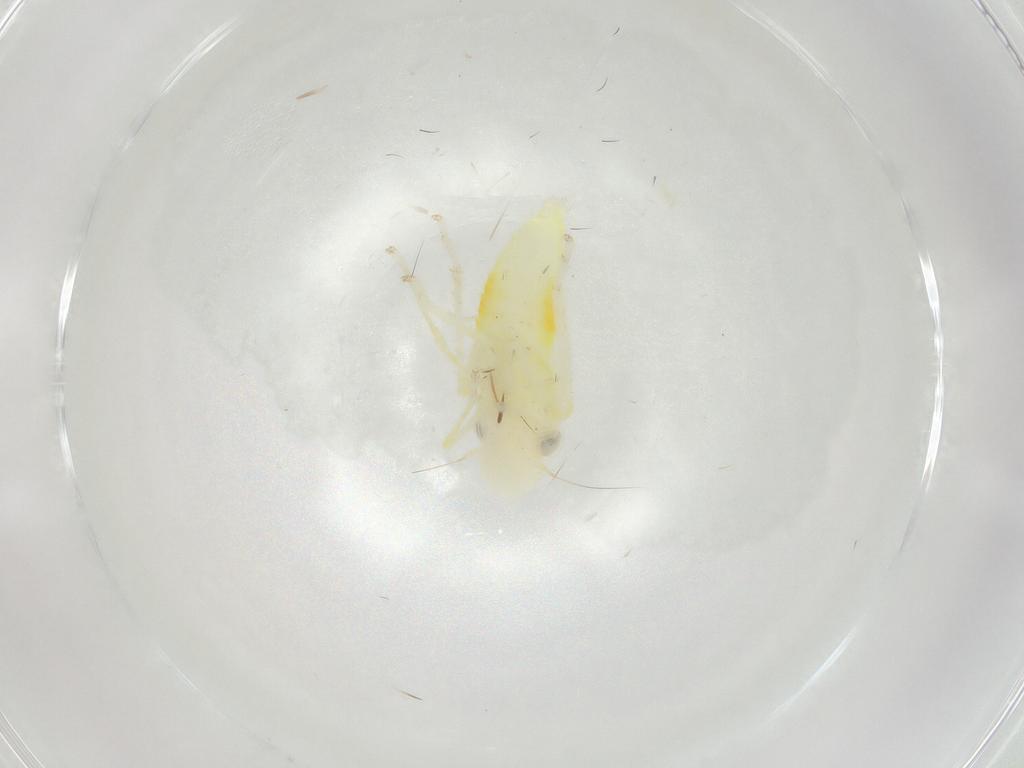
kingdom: Animalia
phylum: Arthropoda
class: Insecta
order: Hemiptera
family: Cicadellidae
